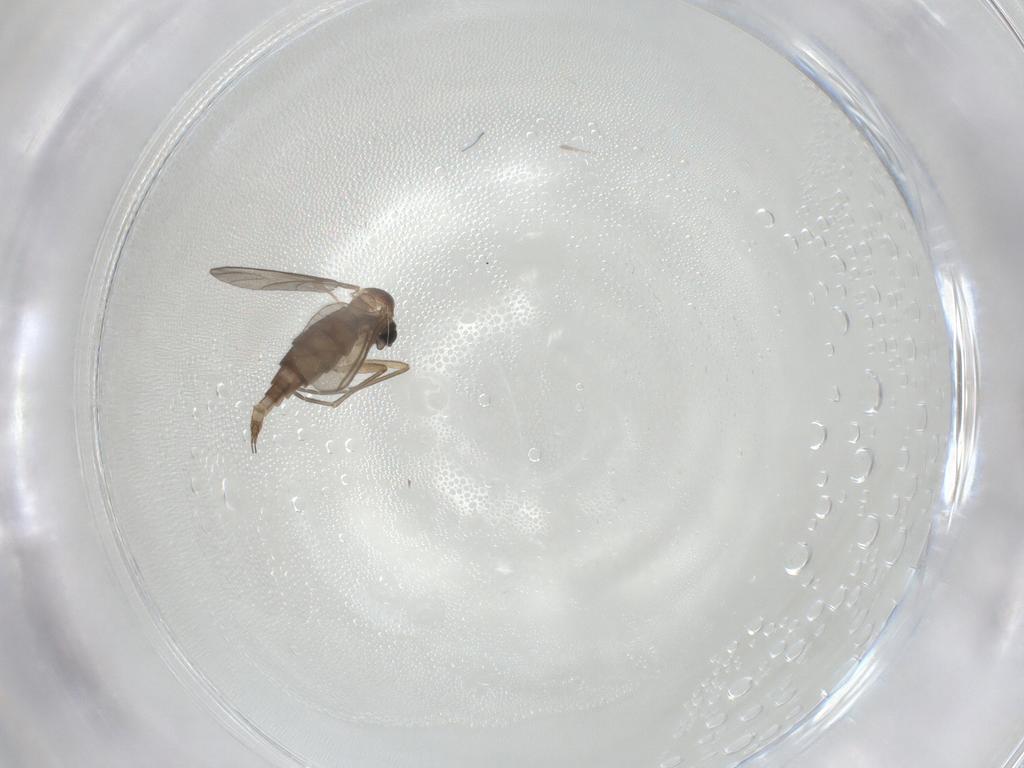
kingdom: Animalia
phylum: Arthropoda
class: Insecta
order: Diptera
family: Sciaridae
